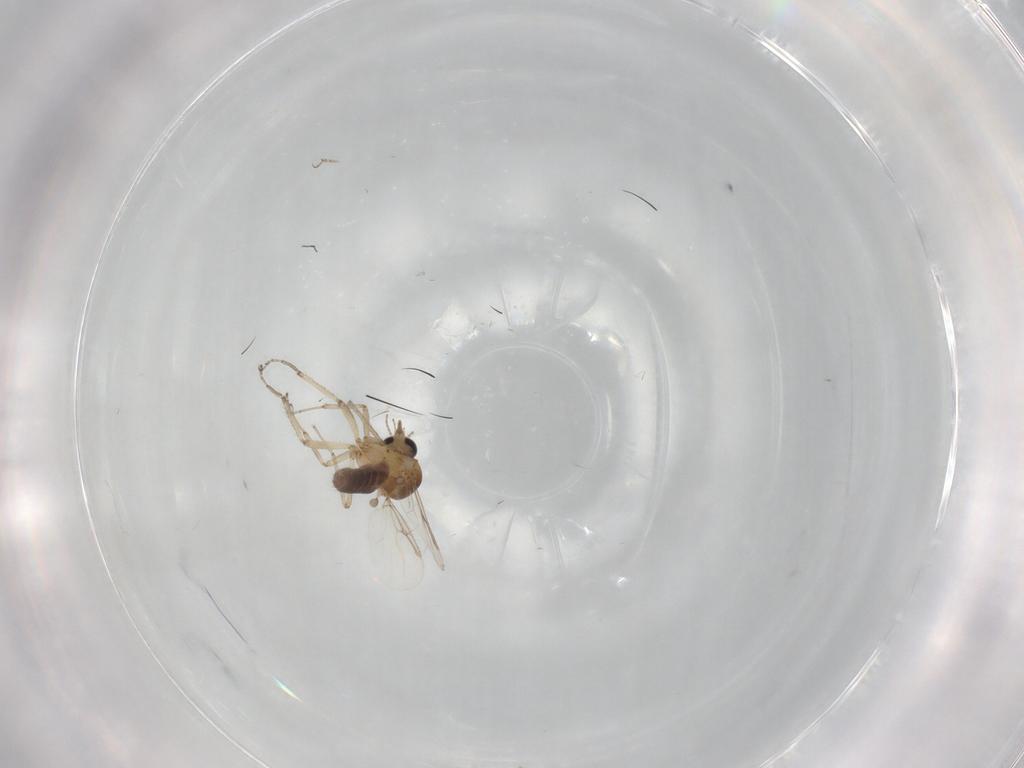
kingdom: Animalia
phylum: Arthropoda
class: Insecta
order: Diptera
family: Ceratopogonidae
